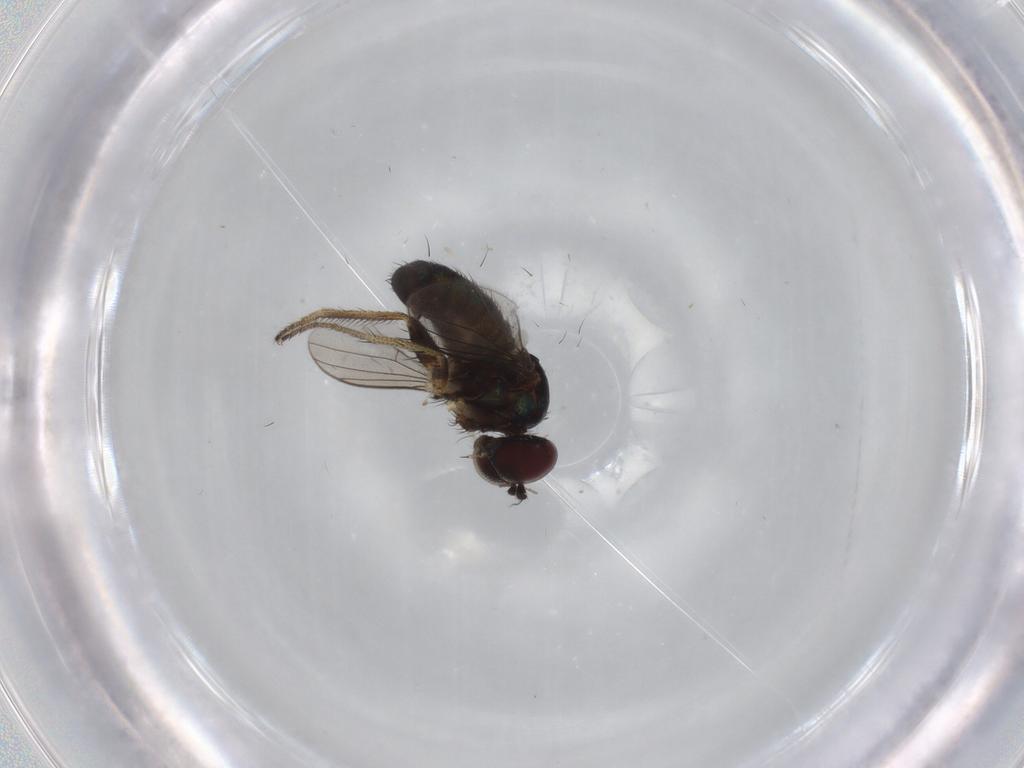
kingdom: Animalia
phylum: Arthropoda
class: Insecta
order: Diptera
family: Dolichopodidae
